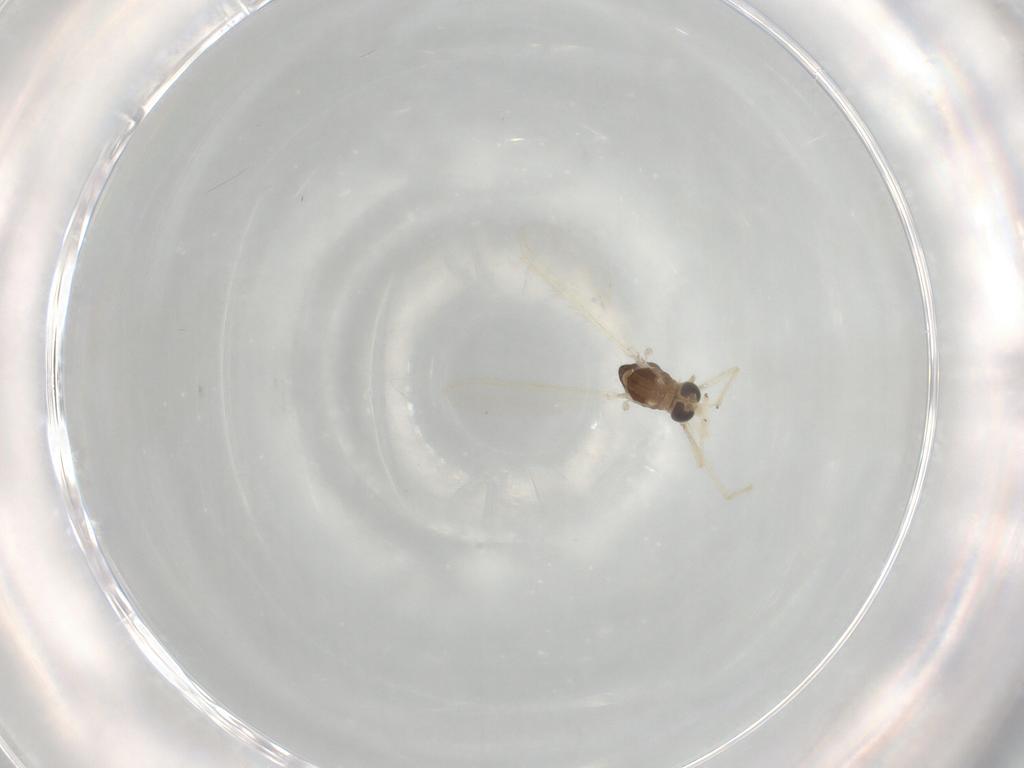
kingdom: Animalia
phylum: Arthropoda
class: Insecta
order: Diptera
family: Chironomidae
